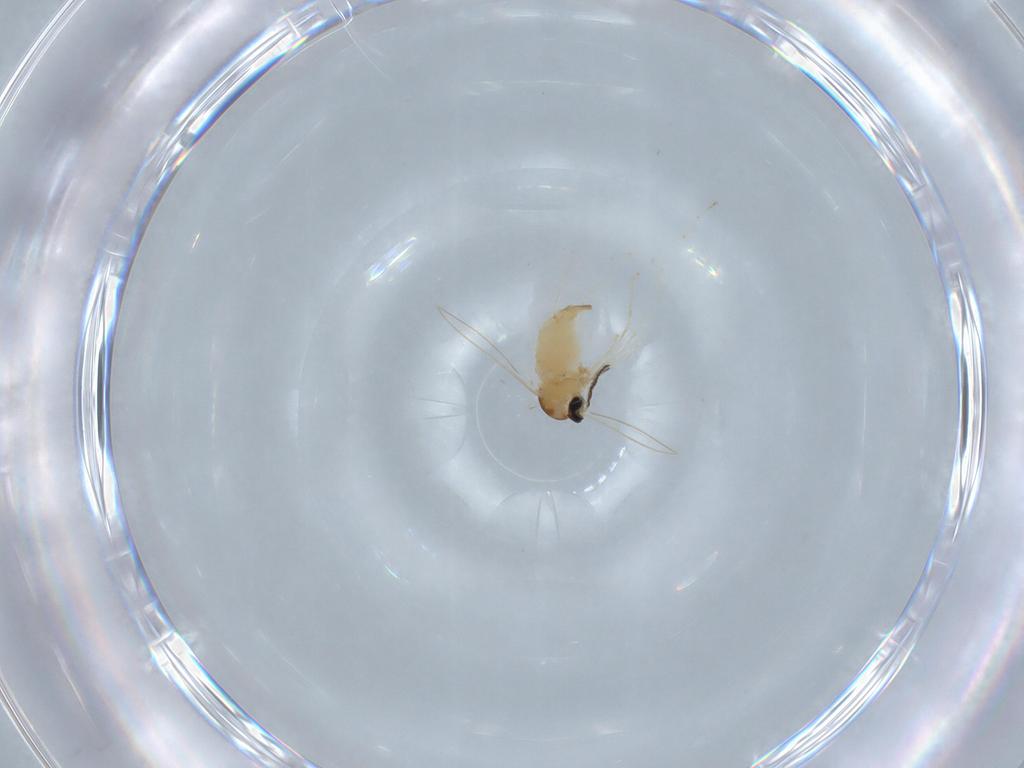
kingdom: Animalia
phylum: Arthropoda
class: Insecta
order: Diptera
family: Cecidomyiidae
